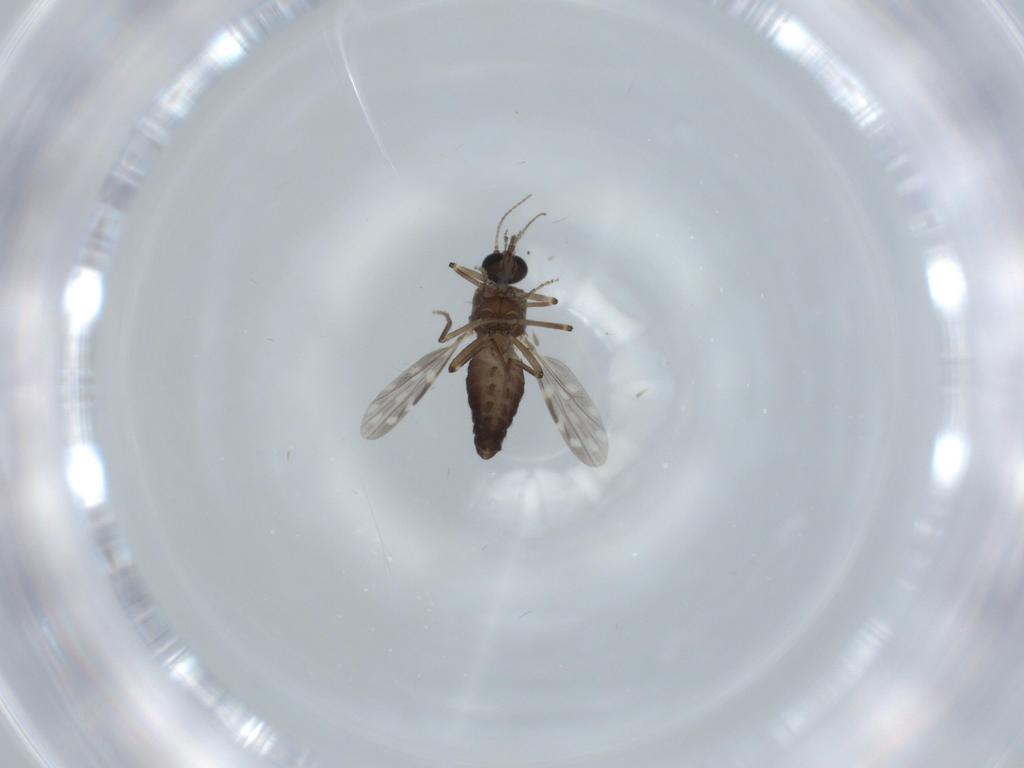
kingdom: Animalia
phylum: Arthropoda
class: Insecta
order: Diptera
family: Ceratopogonidae
